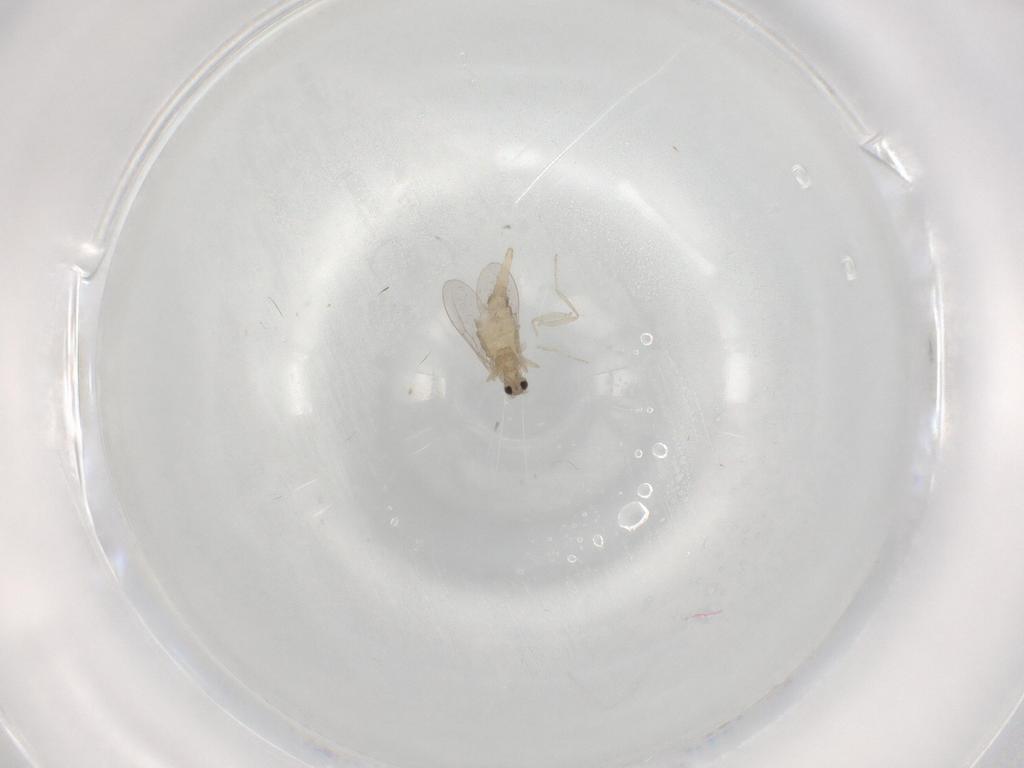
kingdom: Animalia
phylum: Arthropoda
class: Insecta
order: Diptera
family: Cecidomyiidae
